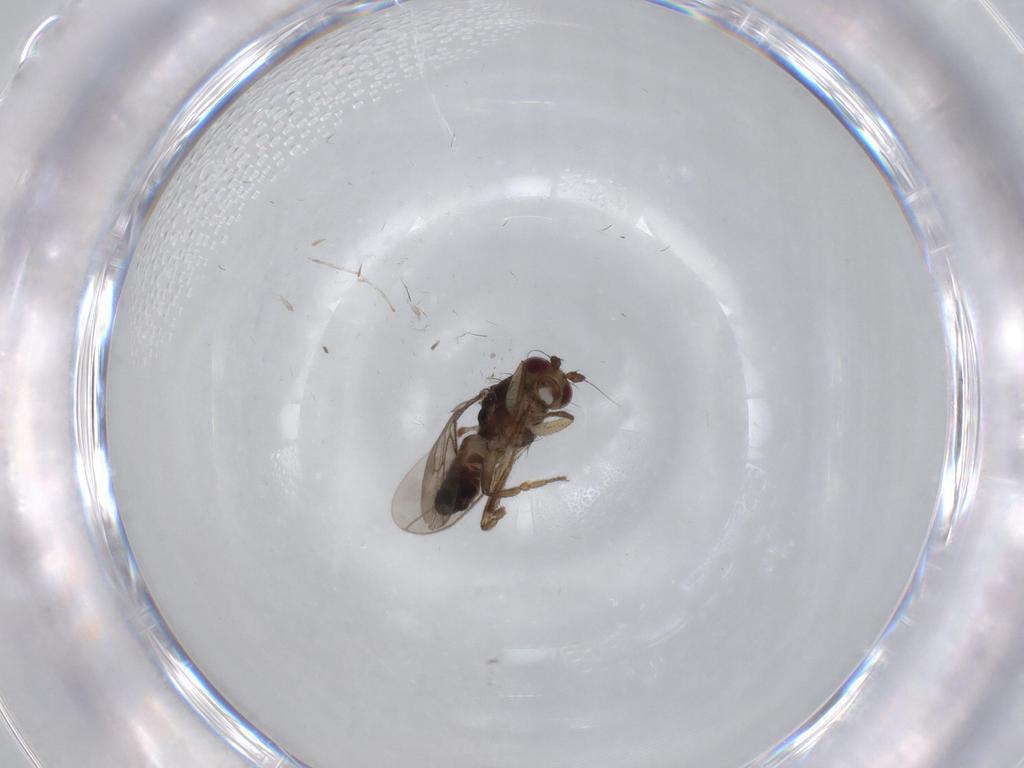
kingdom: Animalia
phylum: Arthropoda
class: Insecta
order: Diptera
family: Sphaeroceridae
